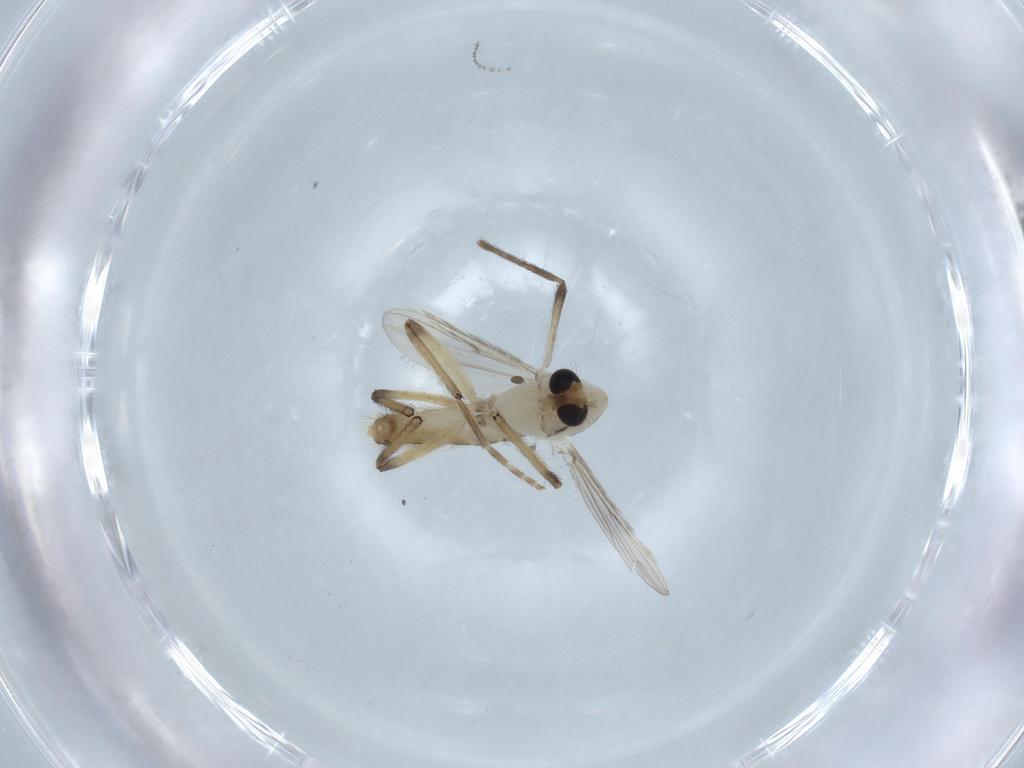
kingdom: Animalia
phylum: Arthropoda
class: Insecta
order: Diptera
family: Chironomidae
